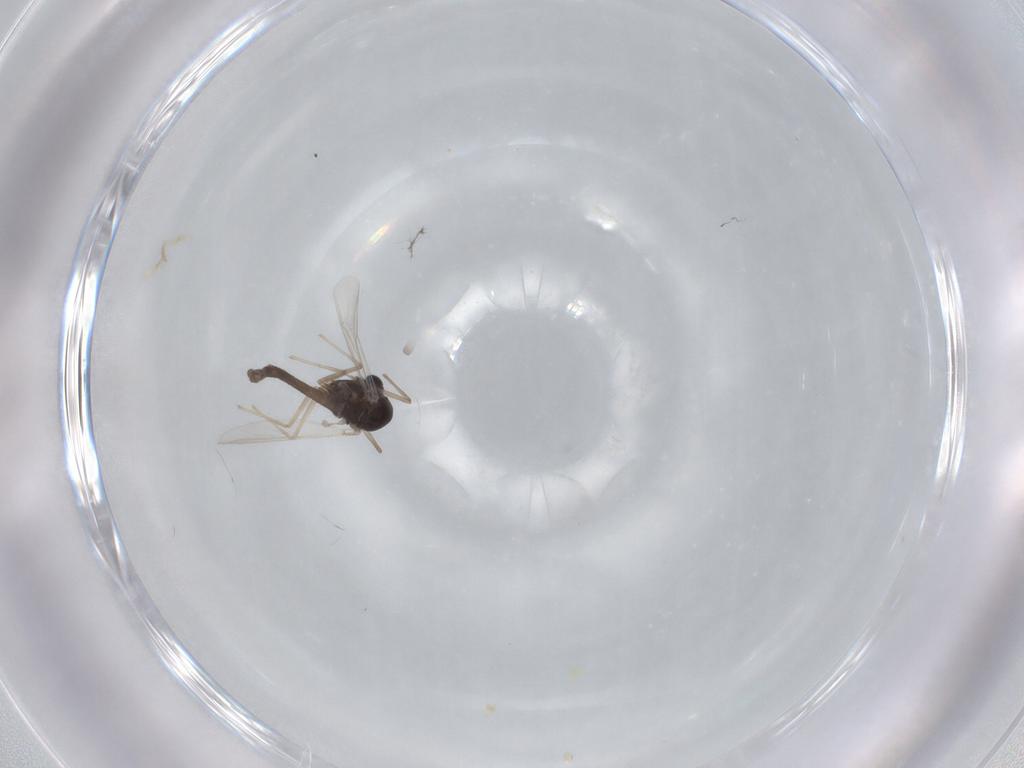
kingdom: Animalia
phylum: Arthropoda
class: Insecta
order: Diptera
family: Chironomidae
